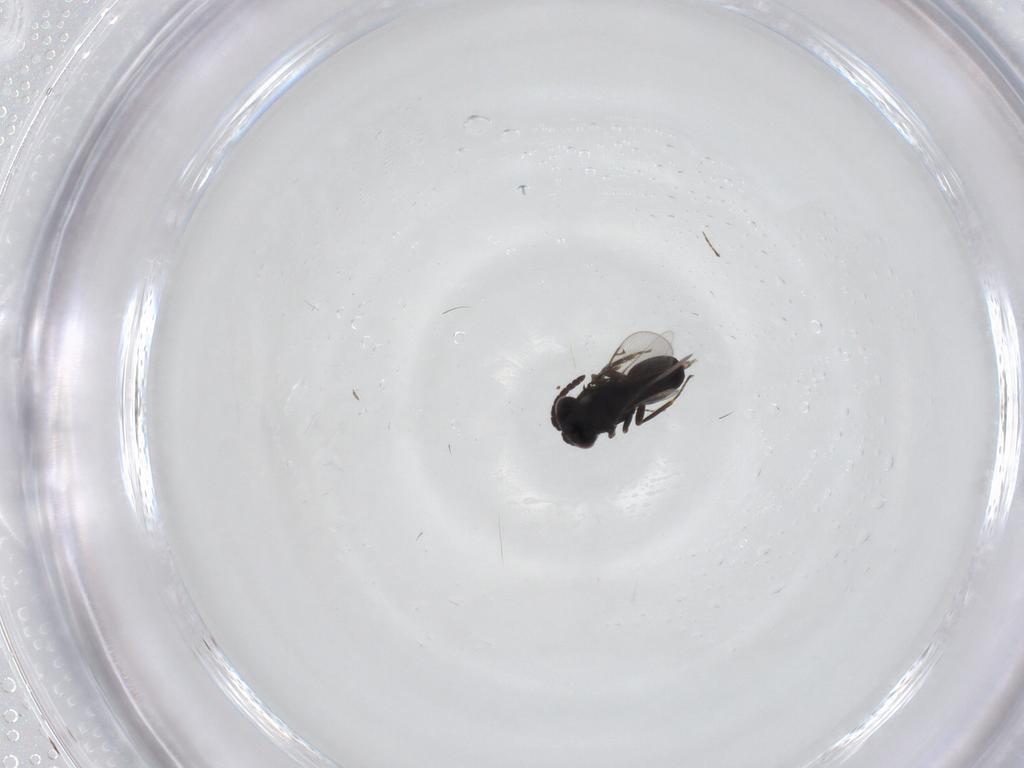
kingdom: Animalia
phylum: Arthropoda
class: Insecta
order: Hymenoptera
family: Eunotidae
